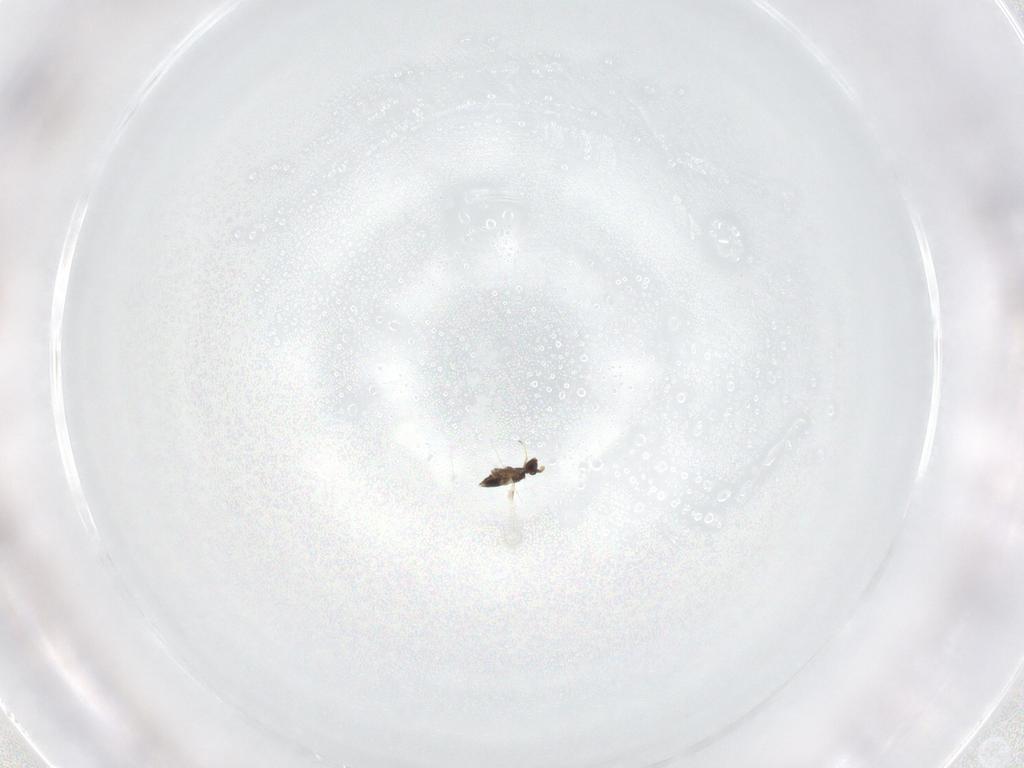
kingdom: Animalia
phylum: Arthropoda
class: Insecta
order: Hymenoptera
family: Mymaridae
